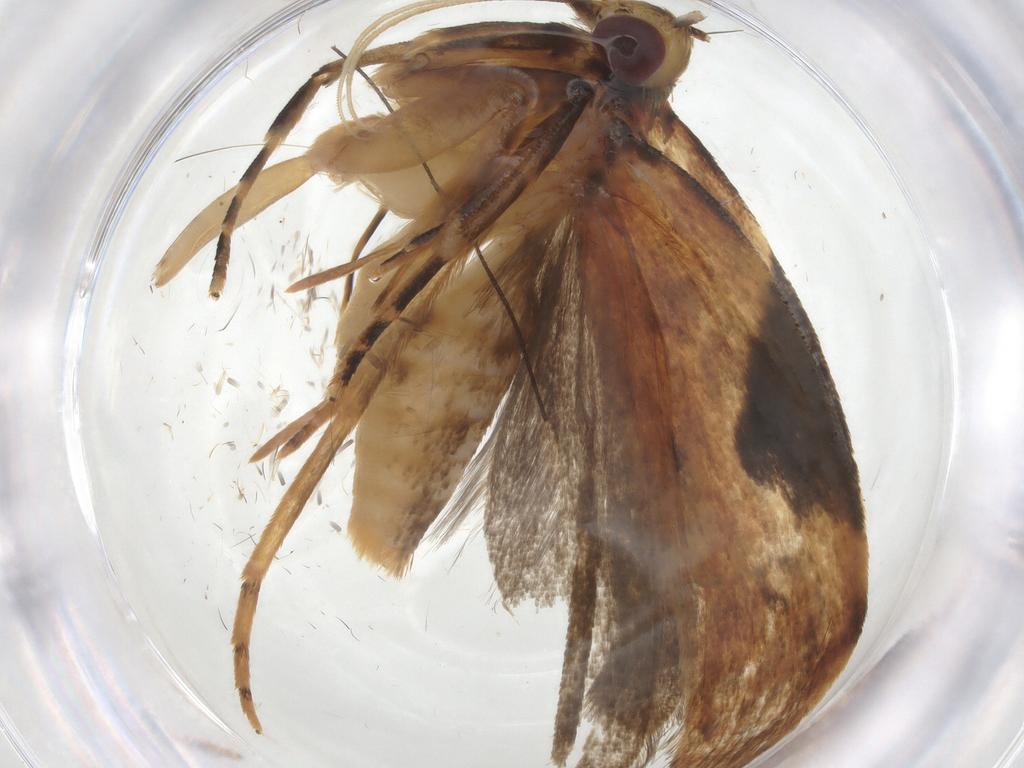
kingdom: Animalia
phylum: Arthropoda
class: Insecta
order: Lepidoptera
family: Gelechiidae
